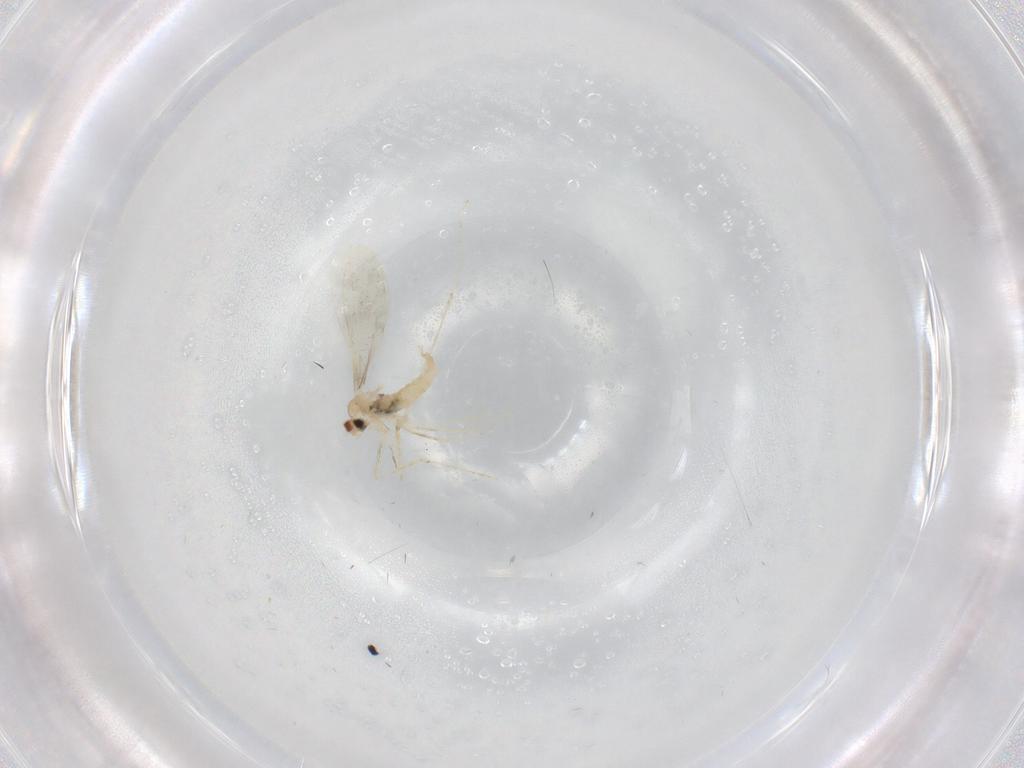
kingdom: Animalia
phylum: Arthropoda
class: Insecta
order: Diptera
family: Cecidomyiidae
